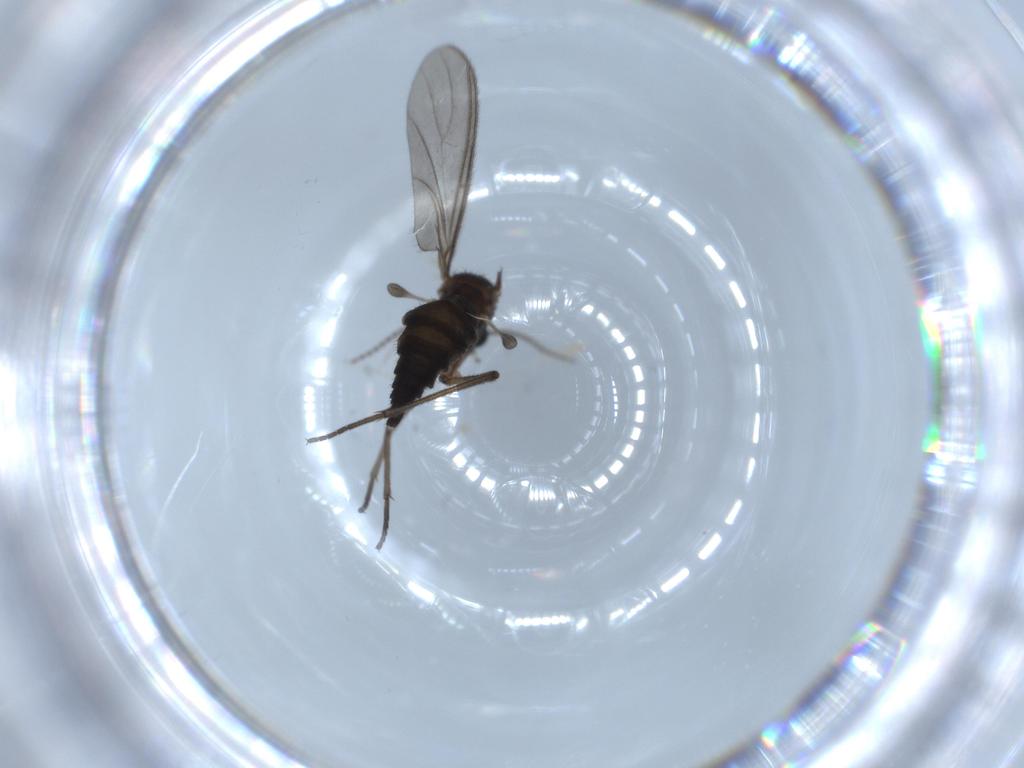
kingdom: Animalia
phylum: Arthropoda
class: Insecta
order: Diptera
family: Sciaridae
